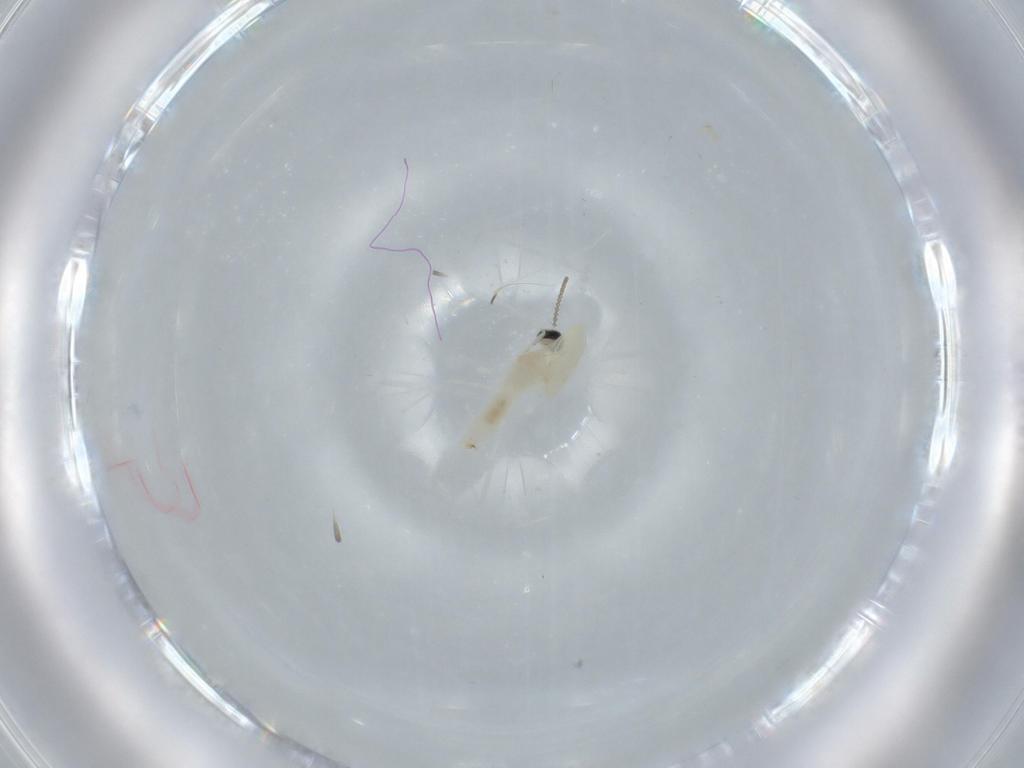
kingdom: Animalia
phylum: Arthropoda
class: Insecta
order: Diptera
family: Cecidomyiidae
